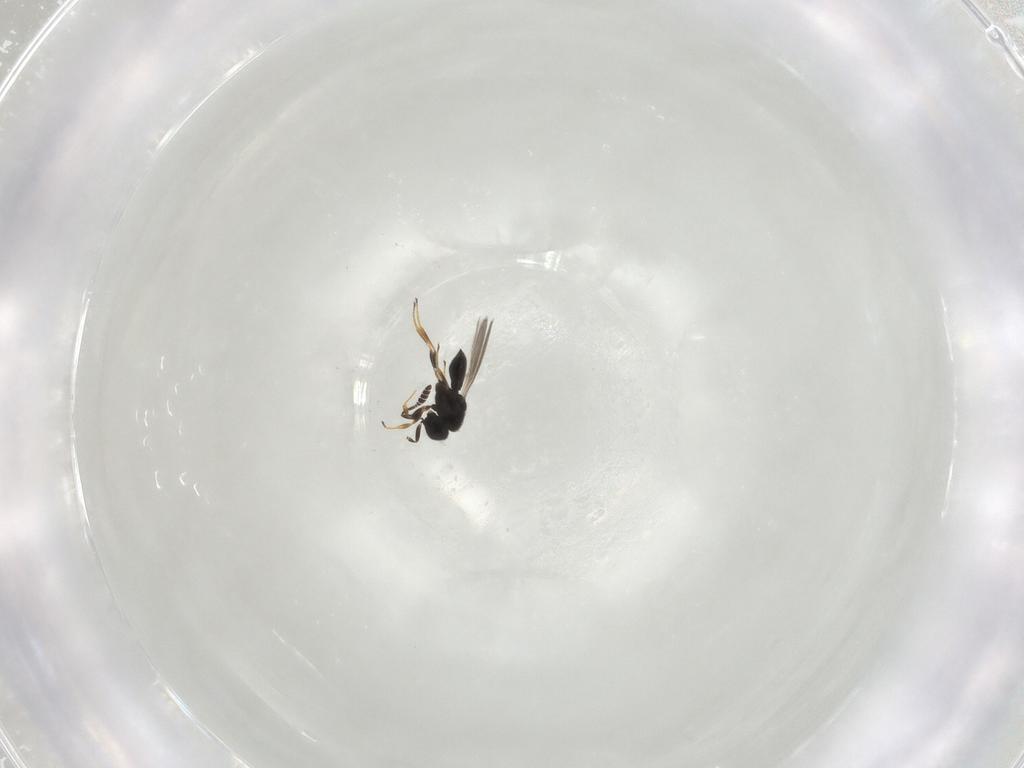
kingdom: Animalia
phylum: Arthropoda
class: Insecta
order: Hymenoptera
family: Scelionidae
